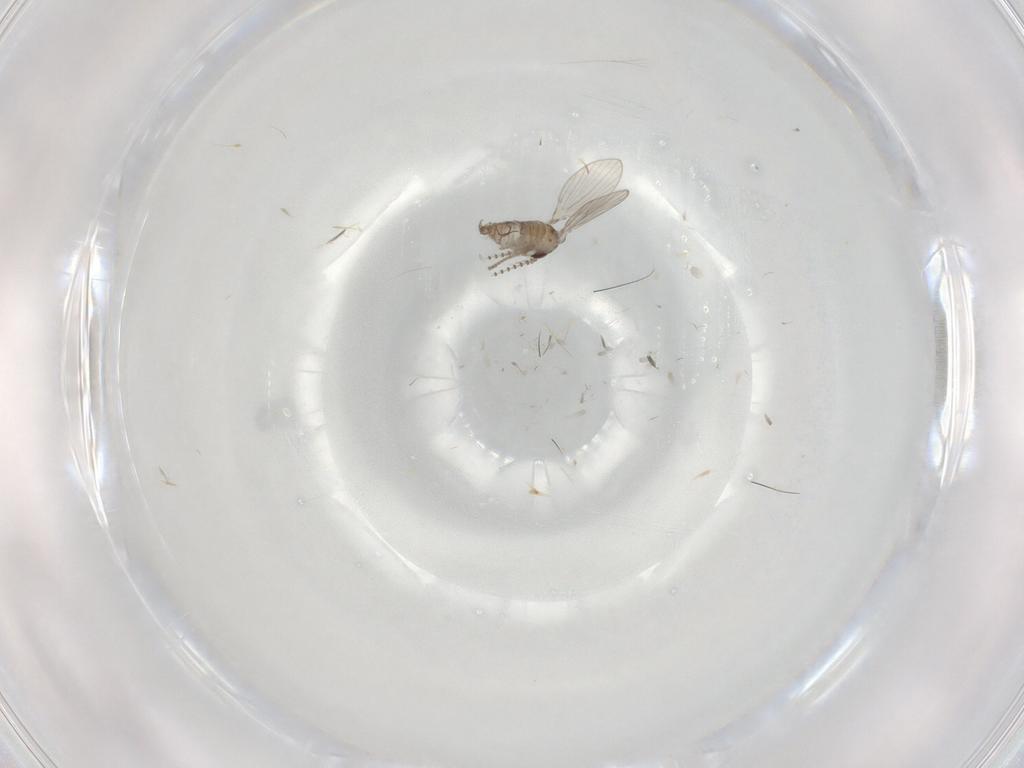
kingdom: Animalia
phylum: Arthropoda
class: Insecta
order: Diptera
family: Psychodidae
